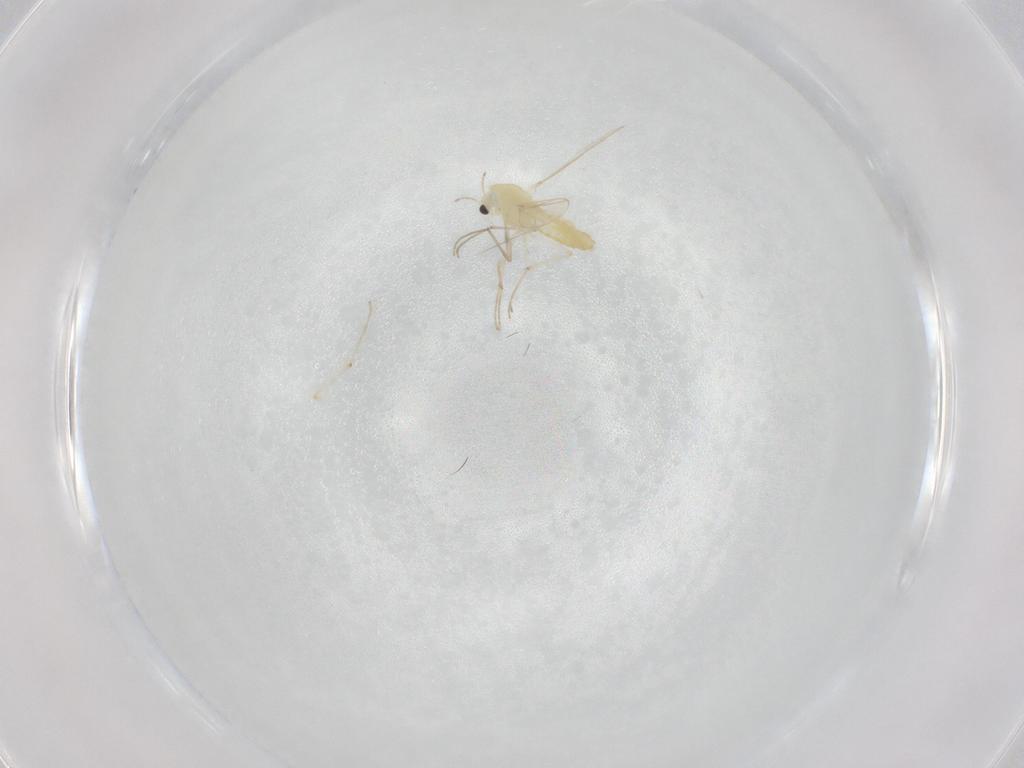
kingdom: Animalia
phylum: Arthropoda
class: Insecta
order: Diptera
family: Chironomidae
